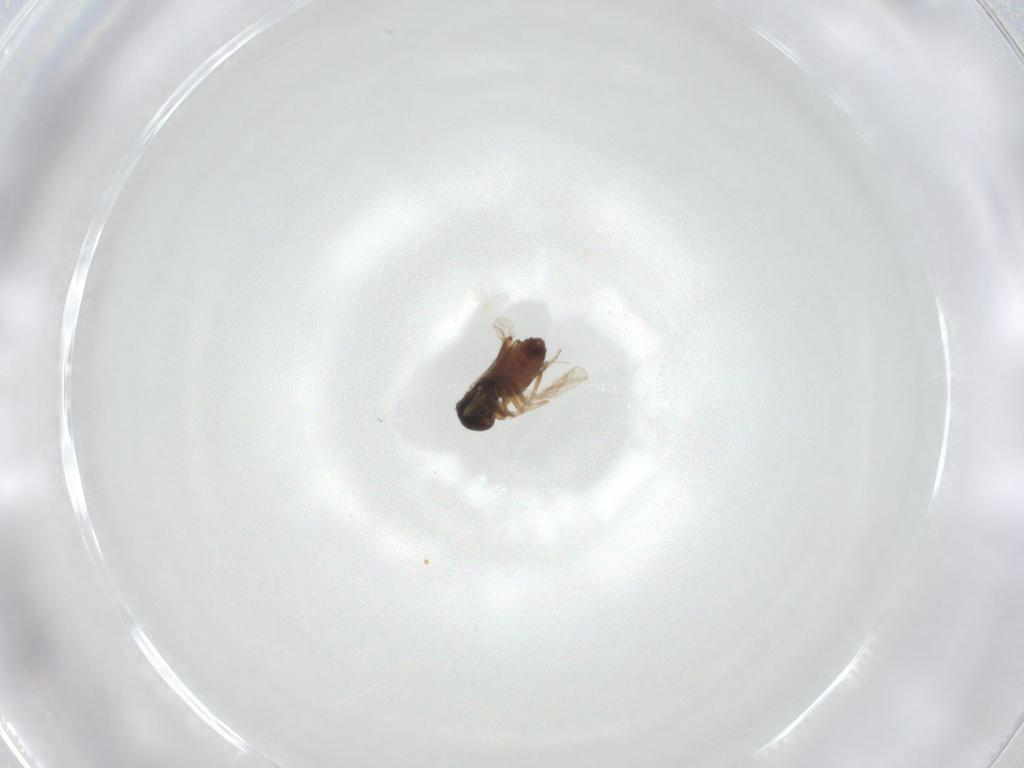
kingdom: Animalia
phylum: Arthropoda
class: Insecta
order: Diptera
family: Ceratopogonidae
